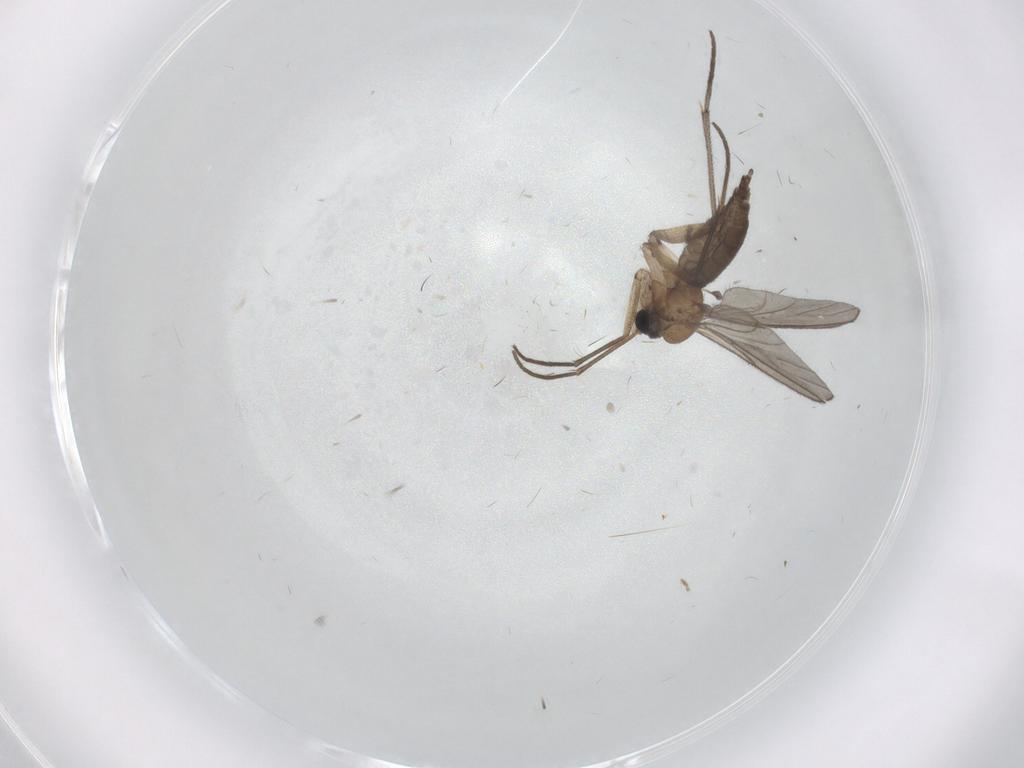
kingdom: Animalia
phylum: Arthropoda
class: Insecta
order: Diptera
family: Sciaridae
